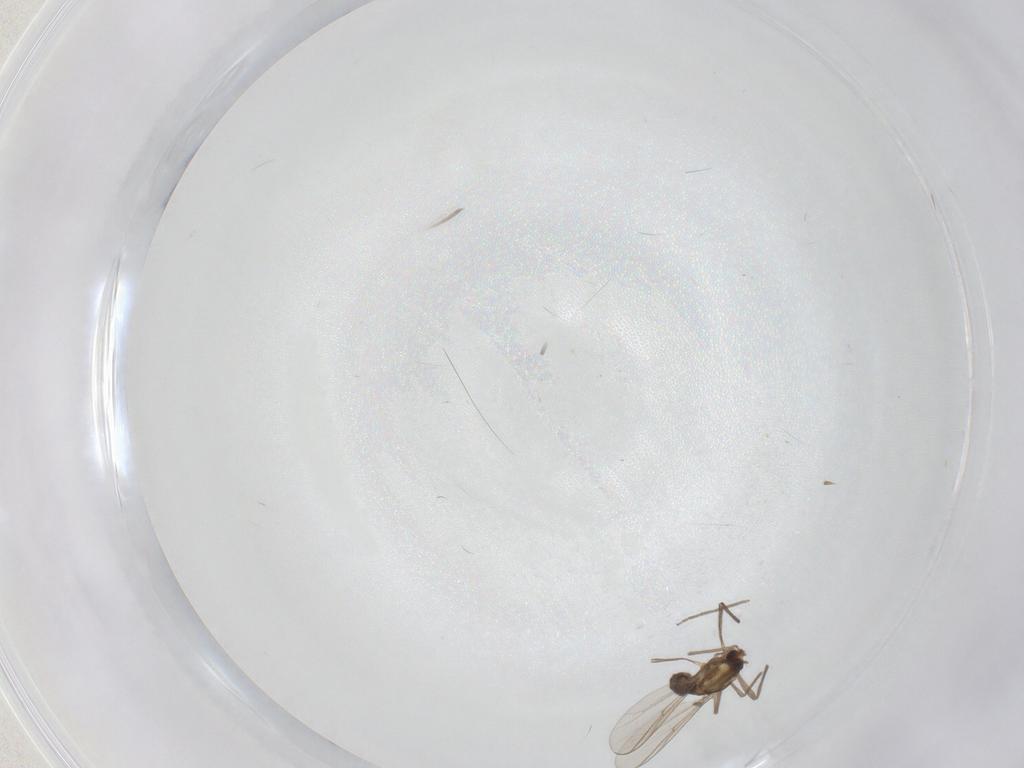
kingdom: Animalia
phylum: Arthropoda
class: Insecta
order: Diptera
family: Chironomidae
